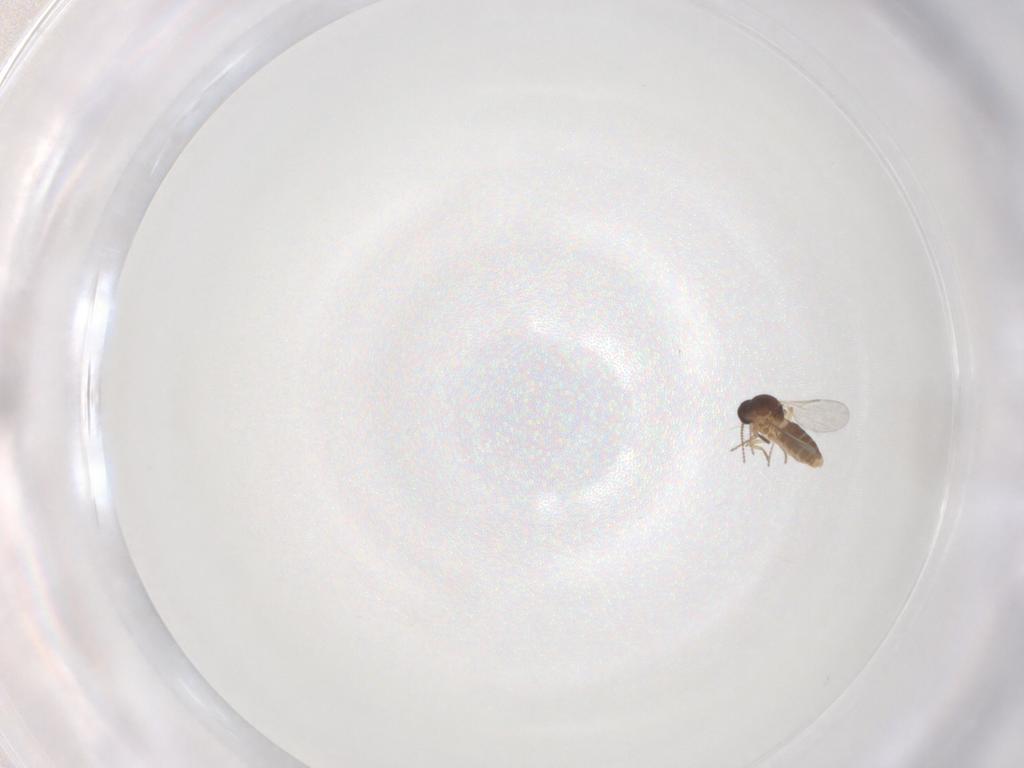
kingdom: Animalia
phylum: Arthropoda
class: Insecta
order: Diptera
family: Ceratopogonidae
